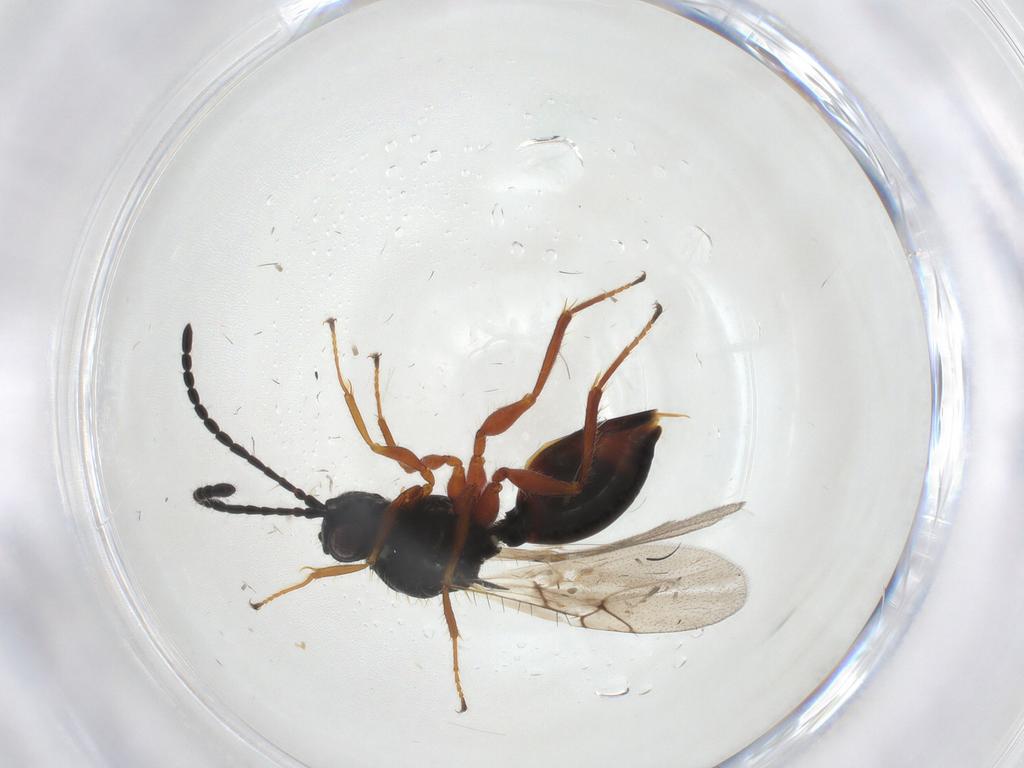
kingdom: Animalia
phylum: Arthropoda
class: Insecta
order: Hymenoptera
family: Figitidae
